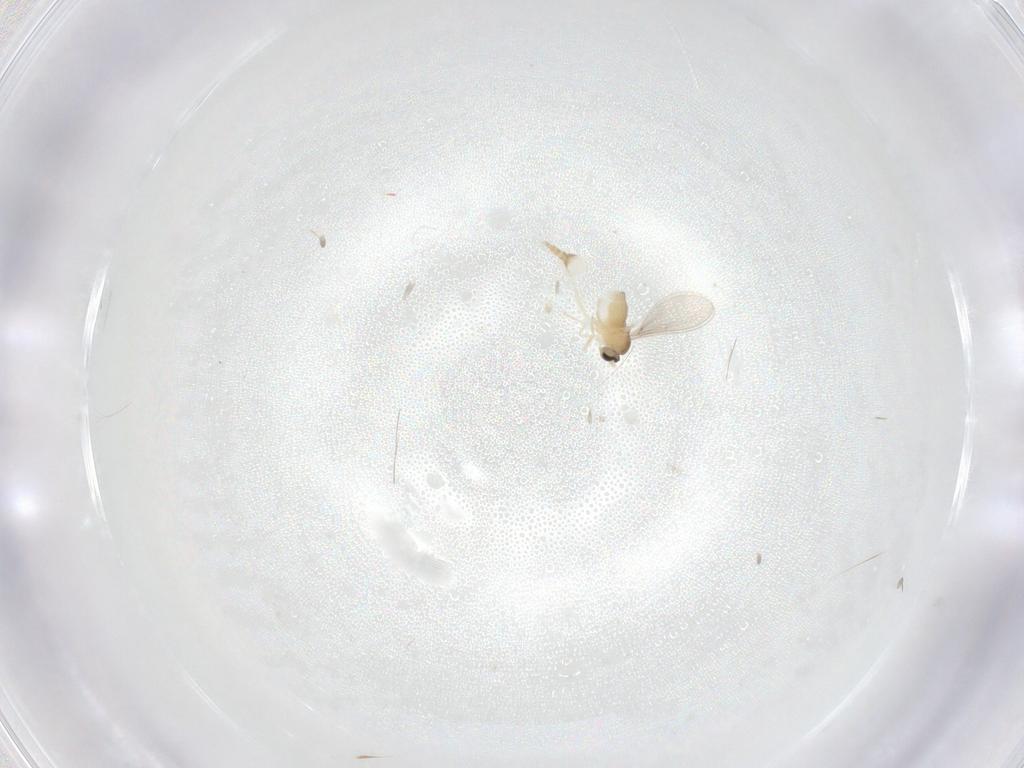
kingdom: Animalia
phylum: Arthropoda
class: Insecta
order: Diptera
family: Cecidomyiidae
